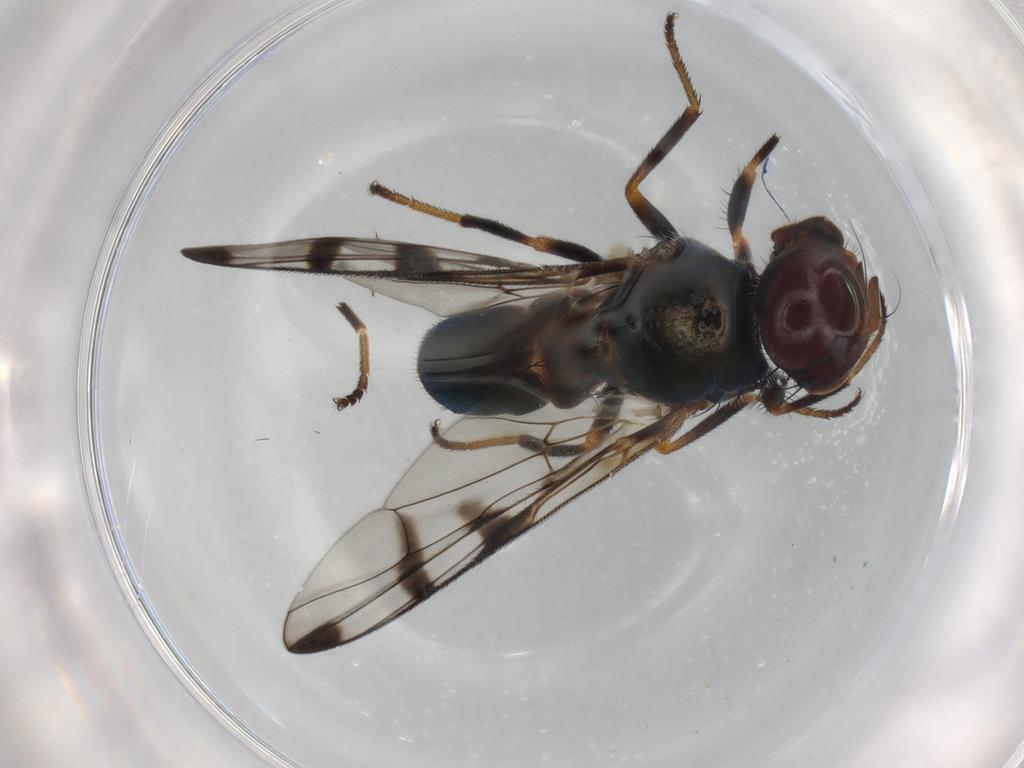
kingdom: Animalia
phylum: Arthropoda
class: Insecta
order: Diptera
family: Platystomatidae
